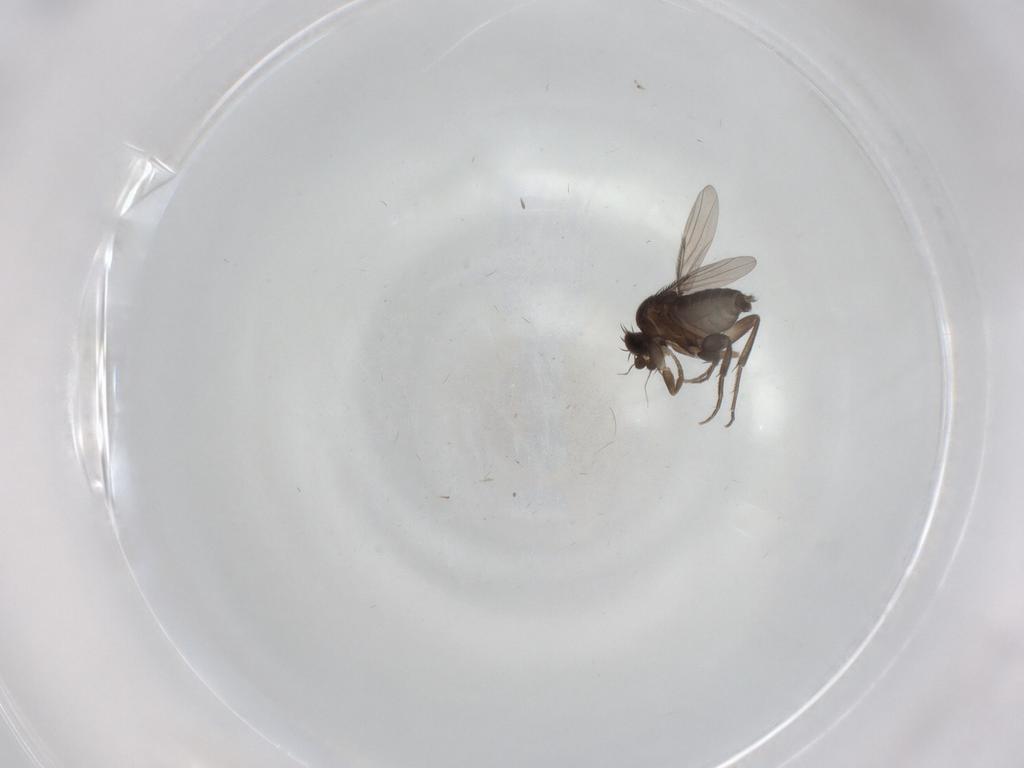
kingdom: Animalia
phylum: Arthropoda
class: Insecta
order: Diptera
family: Phoridae
